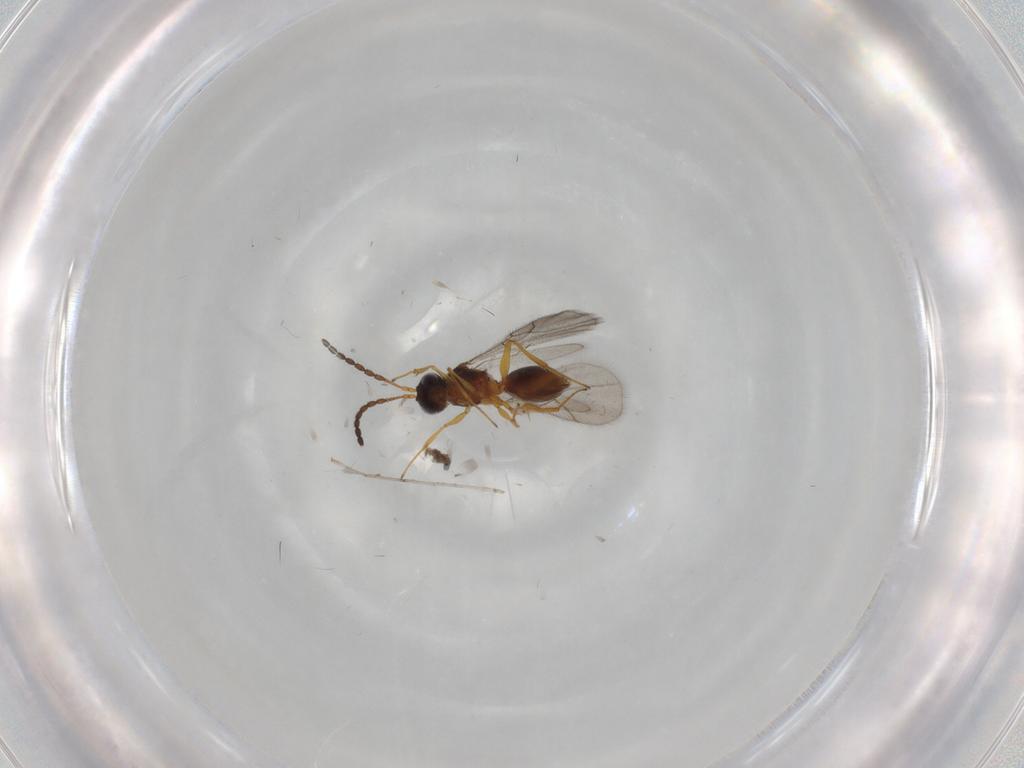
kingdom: Animalia
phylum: Arthropoda
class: Insecta
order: Hymenoptera
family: Figitidae
